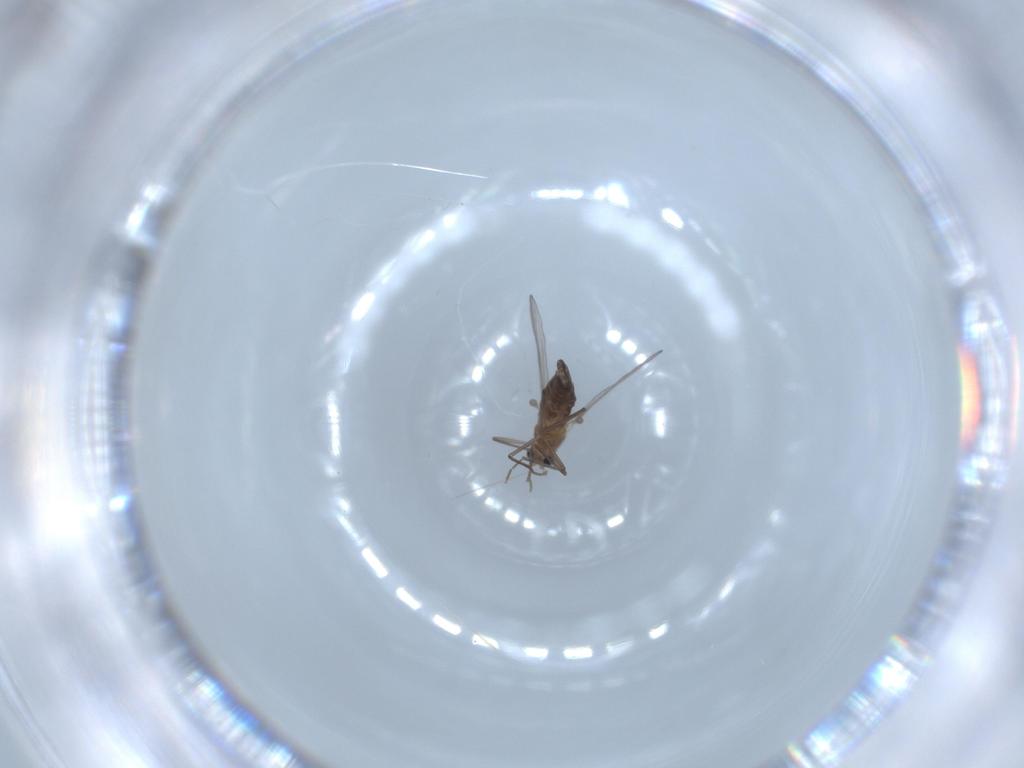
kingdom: Animalia
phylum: Arthropoda
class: Insecta
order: Diptera
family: Chironomidae
